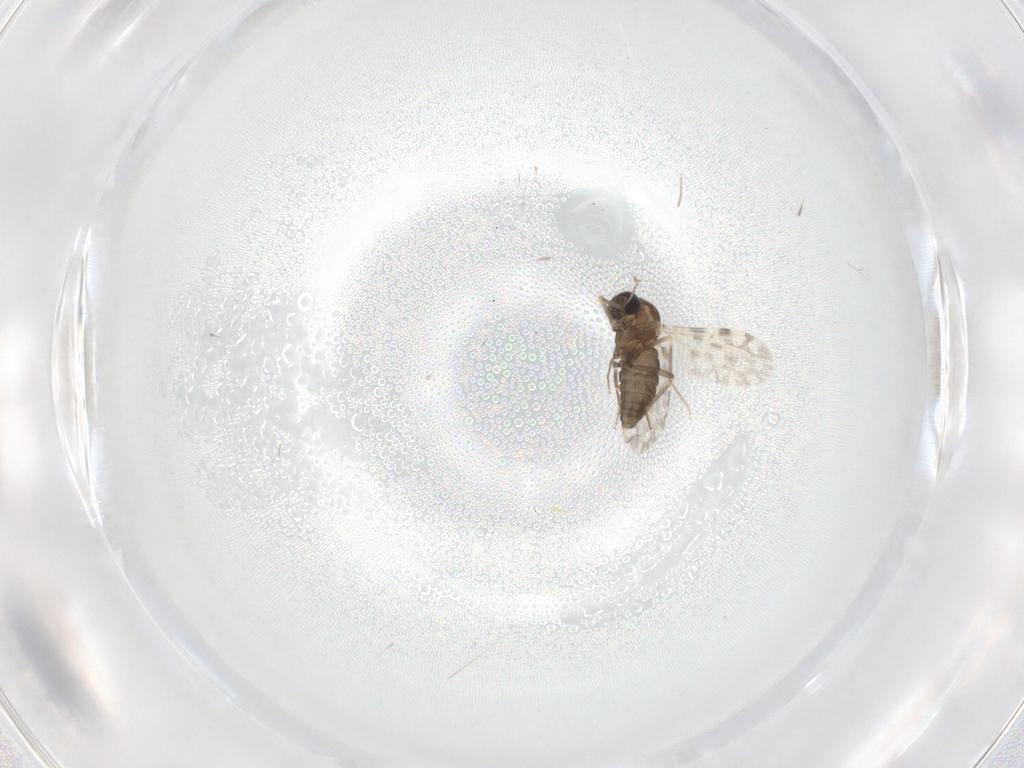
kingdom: Animalia
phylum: Arthropoda
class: Insecta
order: Diptera
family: Ceratopogonidae
